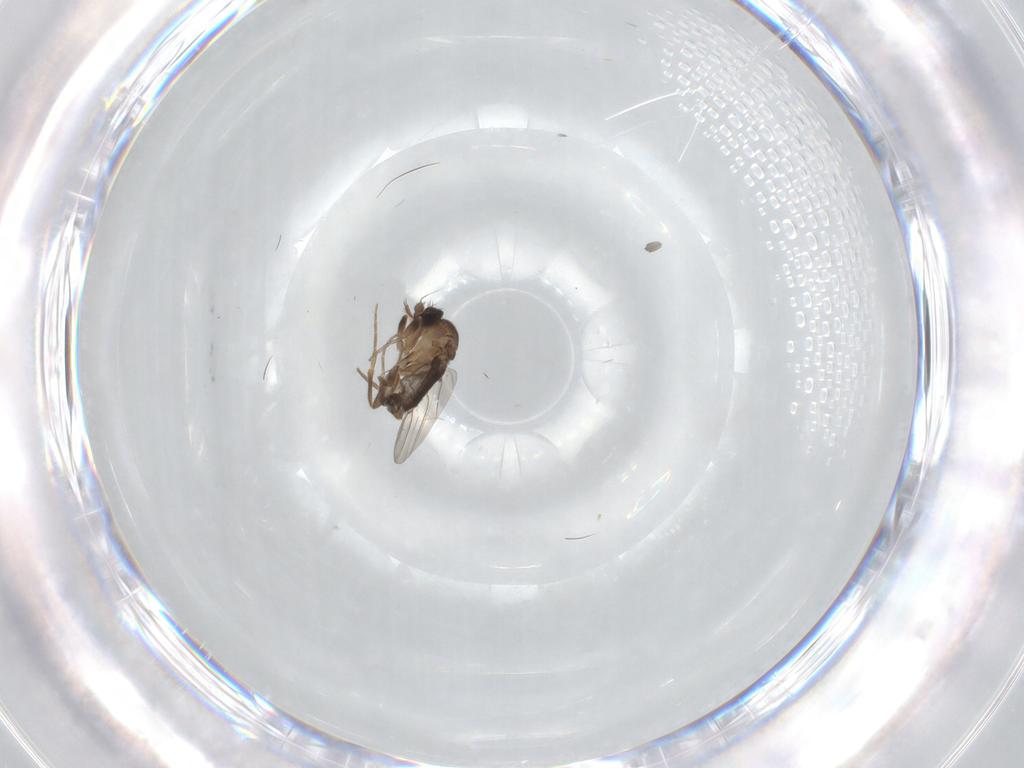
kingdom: Animalia
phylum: Arthropoda
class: Insecta
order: Diptera
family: Phoridae
